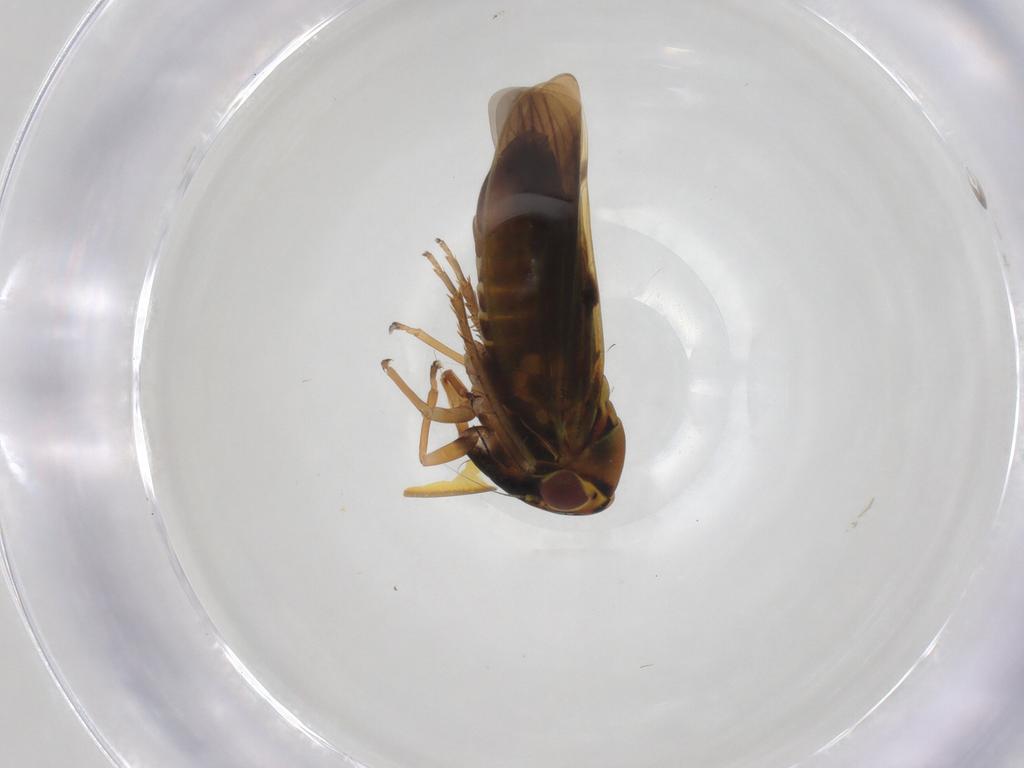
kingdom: Animalia
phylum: Arthropoda
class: Insecta
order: Hemiptera
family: Cicadellidae
